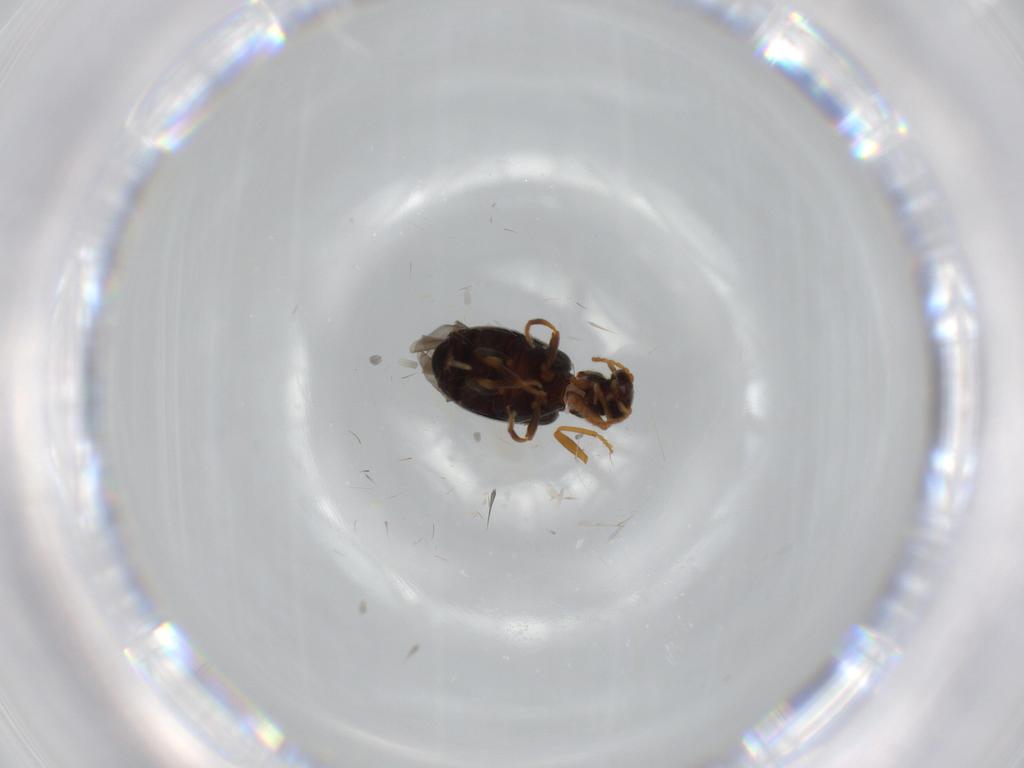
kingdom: Animalia
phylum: Arthropoda
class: Insecta
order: Coleoptera
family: Aderidae
